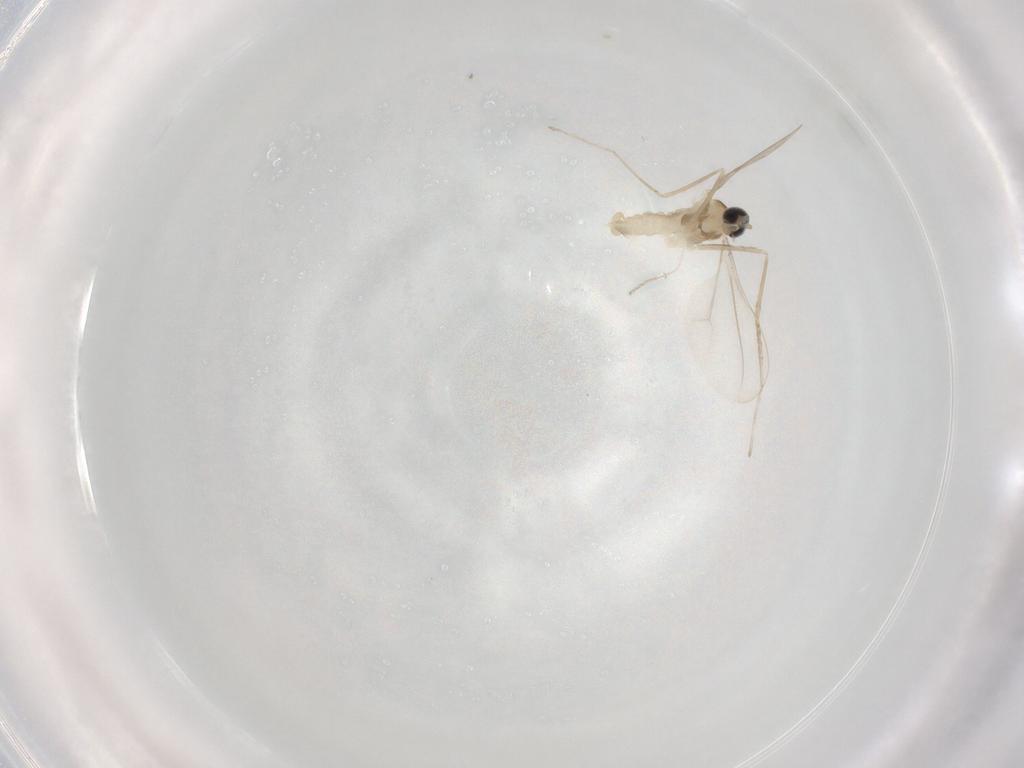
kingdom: Animalia
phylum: Arthropoda
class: Insecta
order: Diptera
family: Cecidomyiidae
